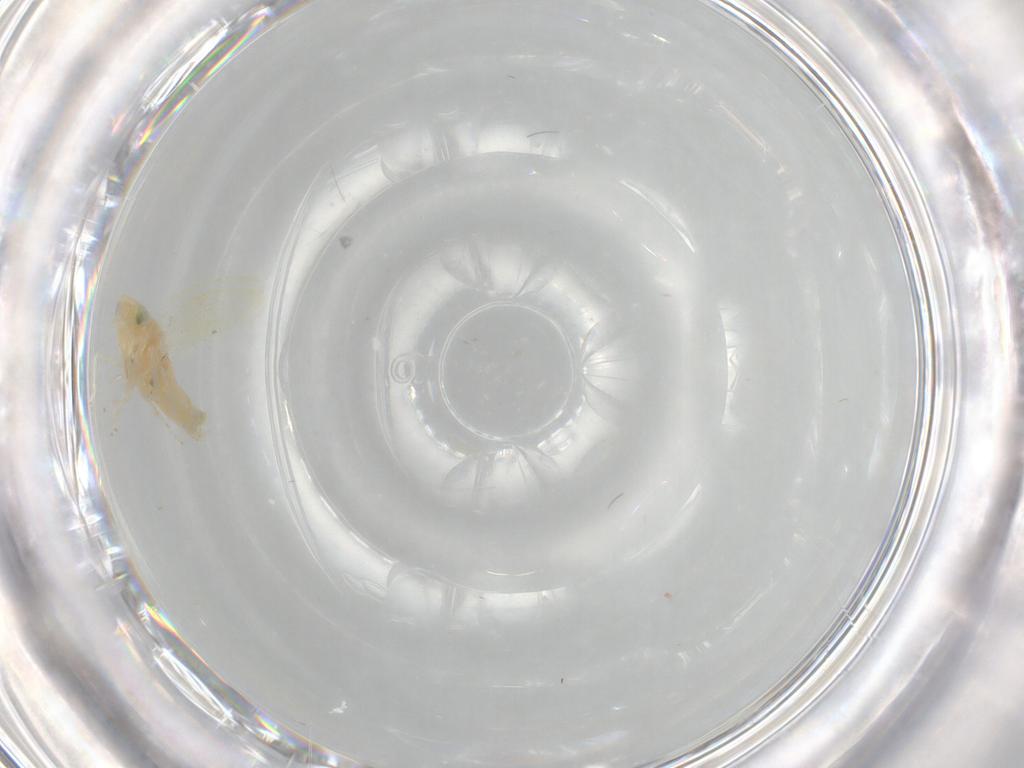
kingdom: Animalia
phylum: Arthropoda
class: Insecta
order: Hemiptera
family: Cicadellidae
